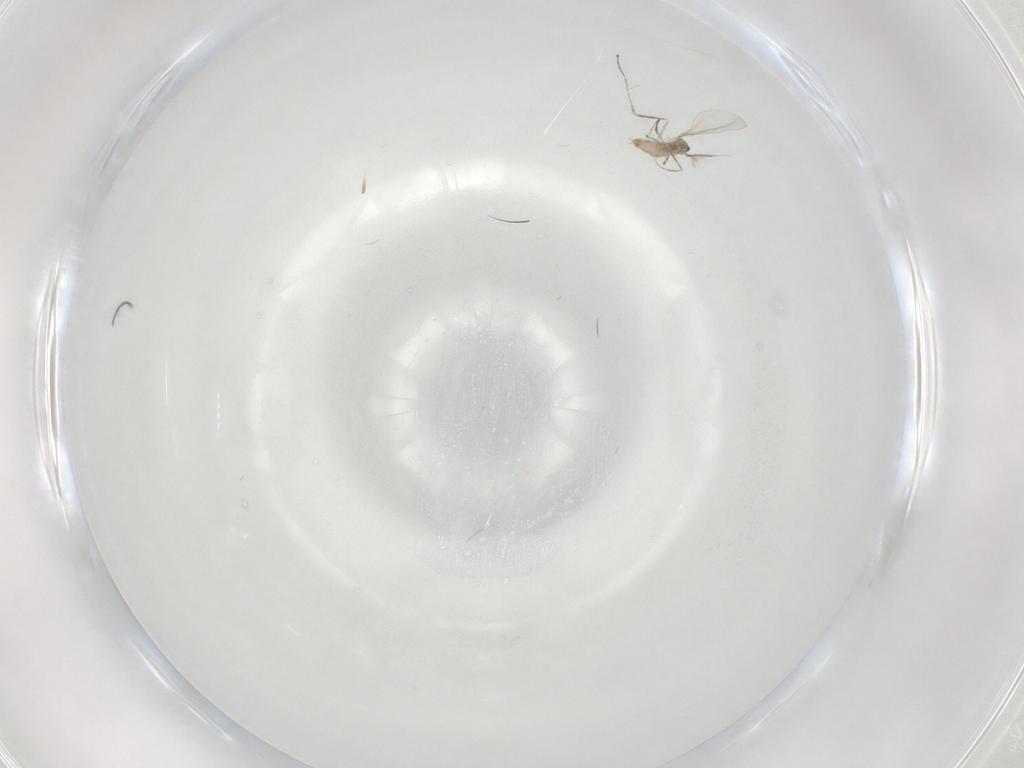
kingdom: Animalia
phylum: Arthropoda
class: Insecta
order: Diptera
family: Cecidomyiidae
